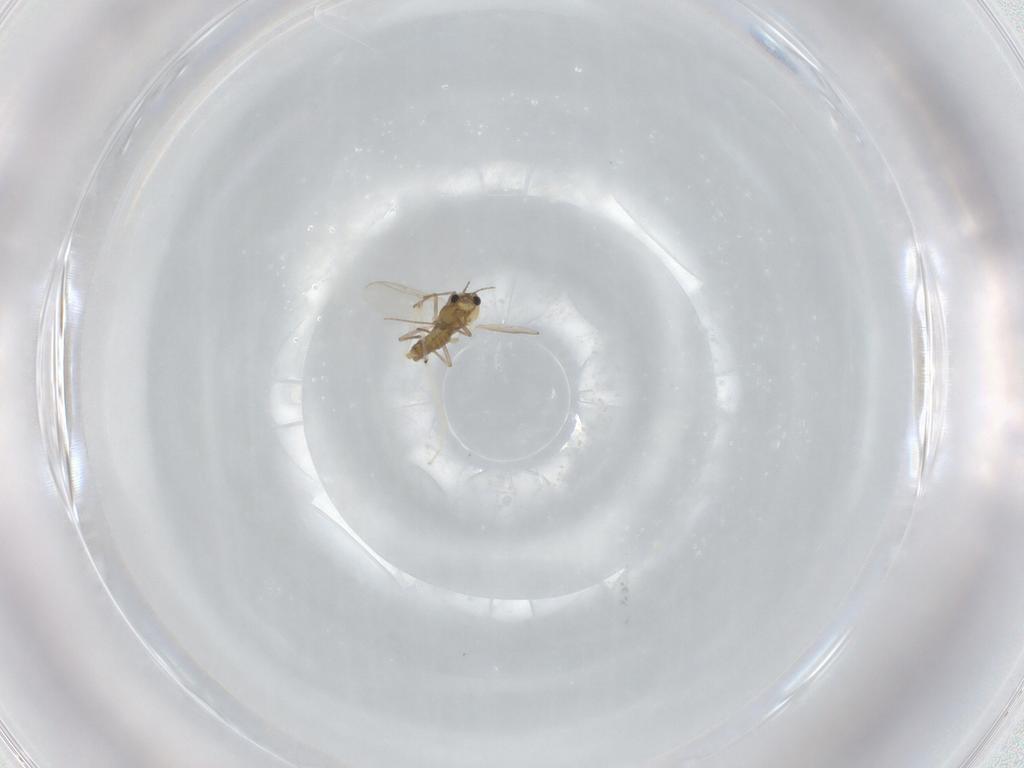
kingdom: Animalia
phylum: Arthropoda
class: Insecta
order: Diptera
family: Chironomidae
